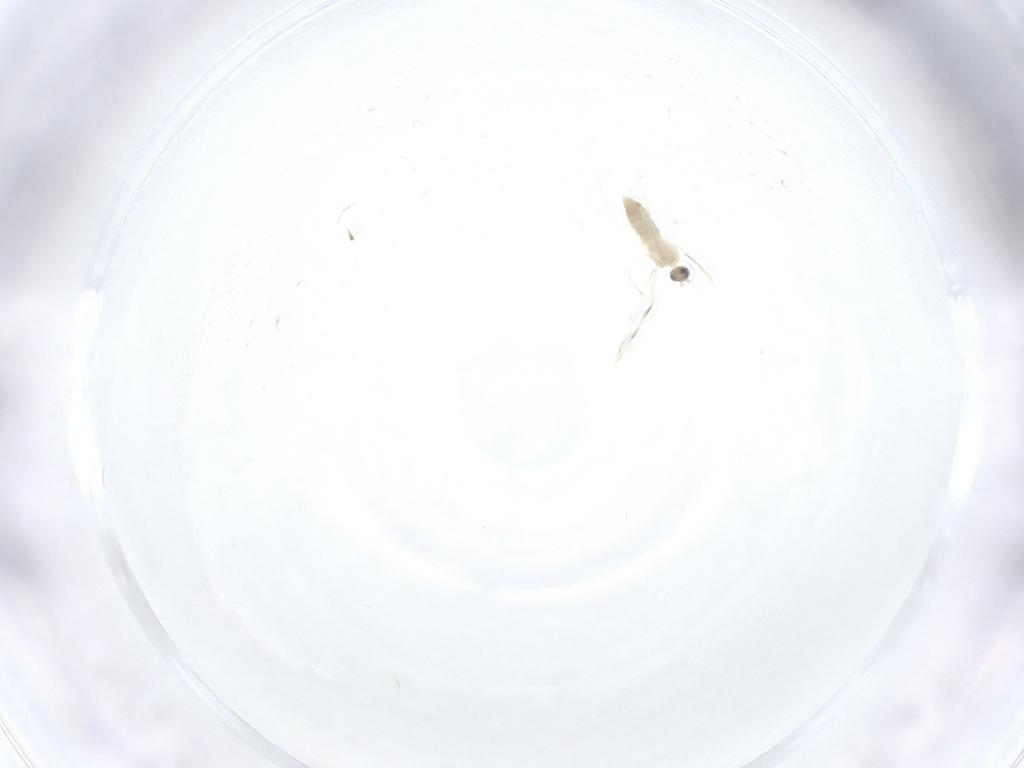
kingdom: Animalia
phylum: Arthropoda
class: Insecta
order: Diptera
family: Cecidomyiidae
